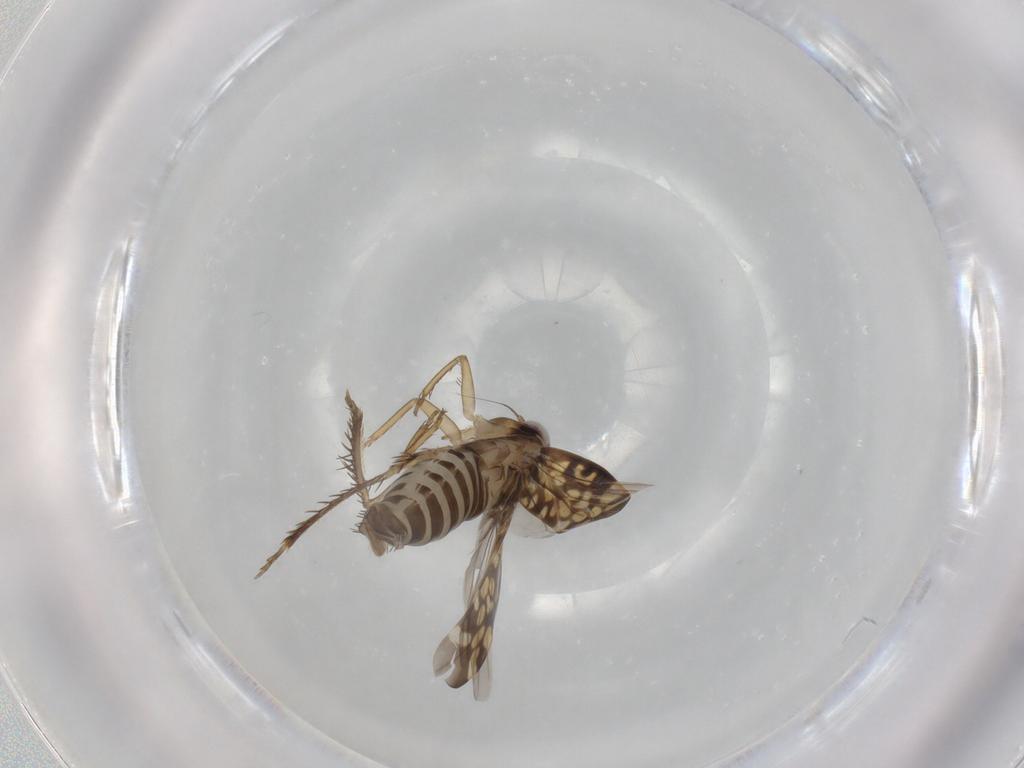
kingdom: Animalia
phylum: Arthropoda
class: Insecta
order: Hemiptera
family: Cicadellidae
